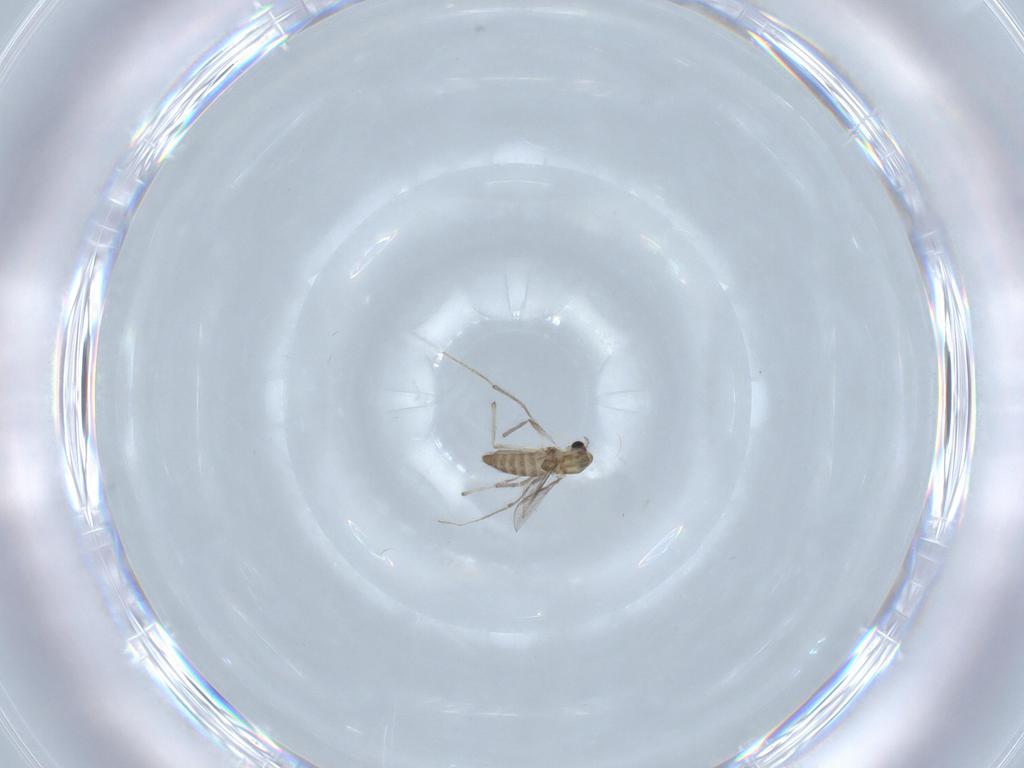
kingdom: Animalia
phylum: Arthropoda
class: Insecta
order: Diptera
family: Chironomidae
